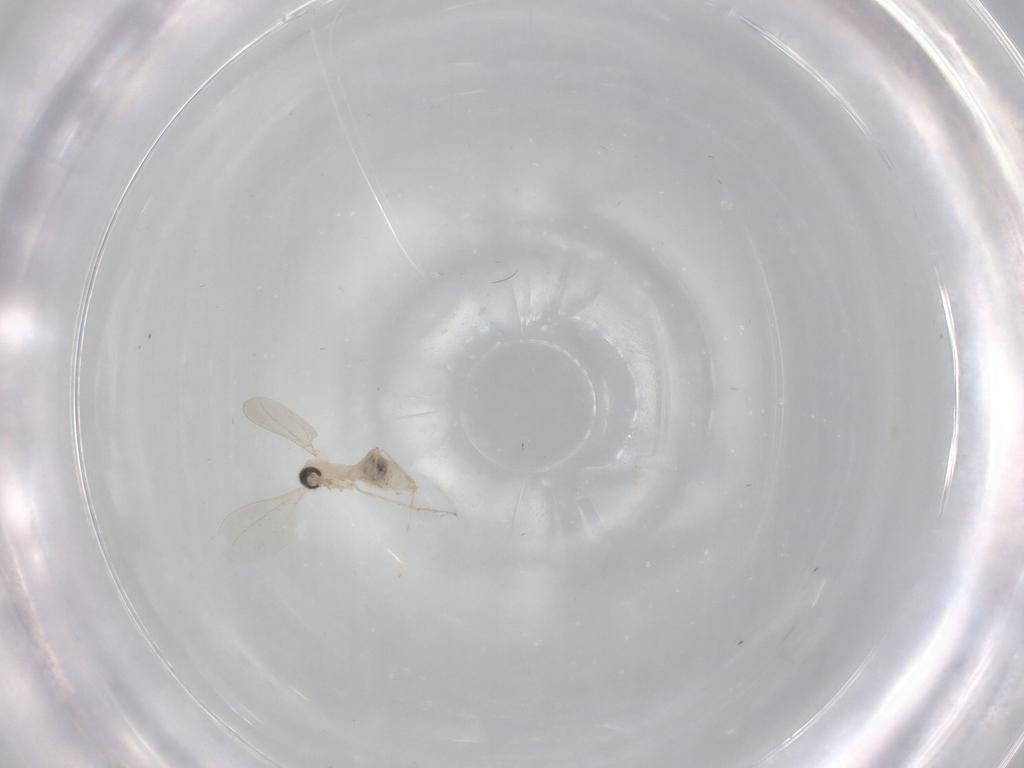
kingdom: Animalia
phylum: Arthropoda
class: Insecta
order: Diptera
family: Cecidomyiidae
